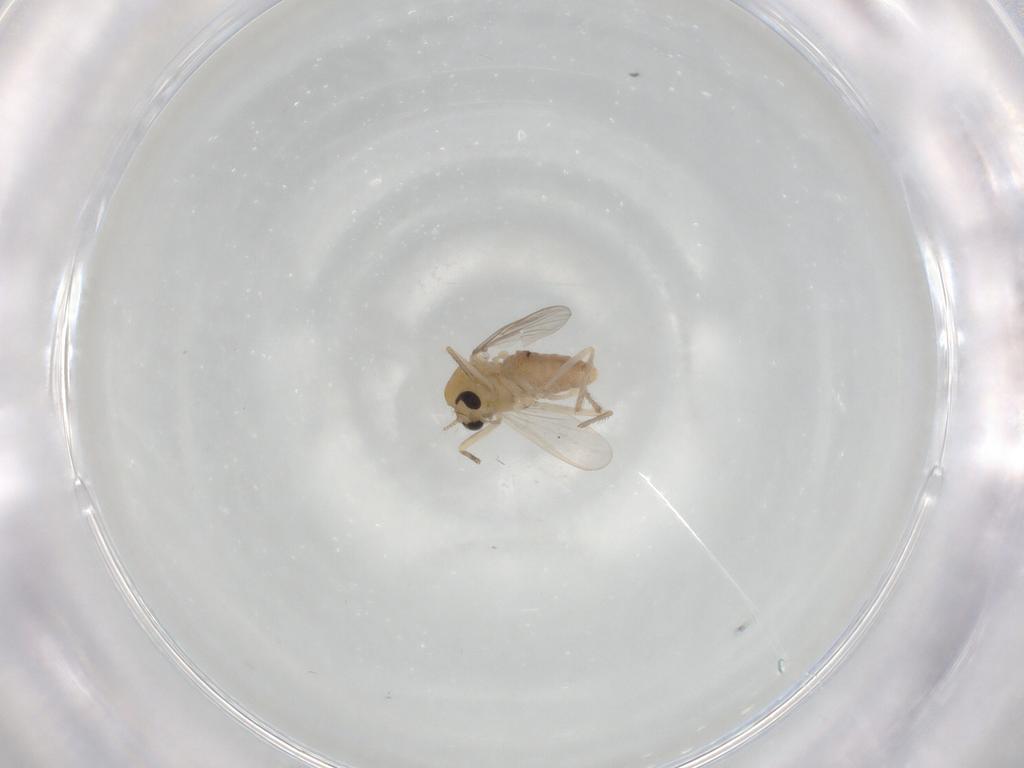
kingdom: Animalia
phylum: Arthropoda
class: Insecta
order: Diptera
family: Chironomidae
